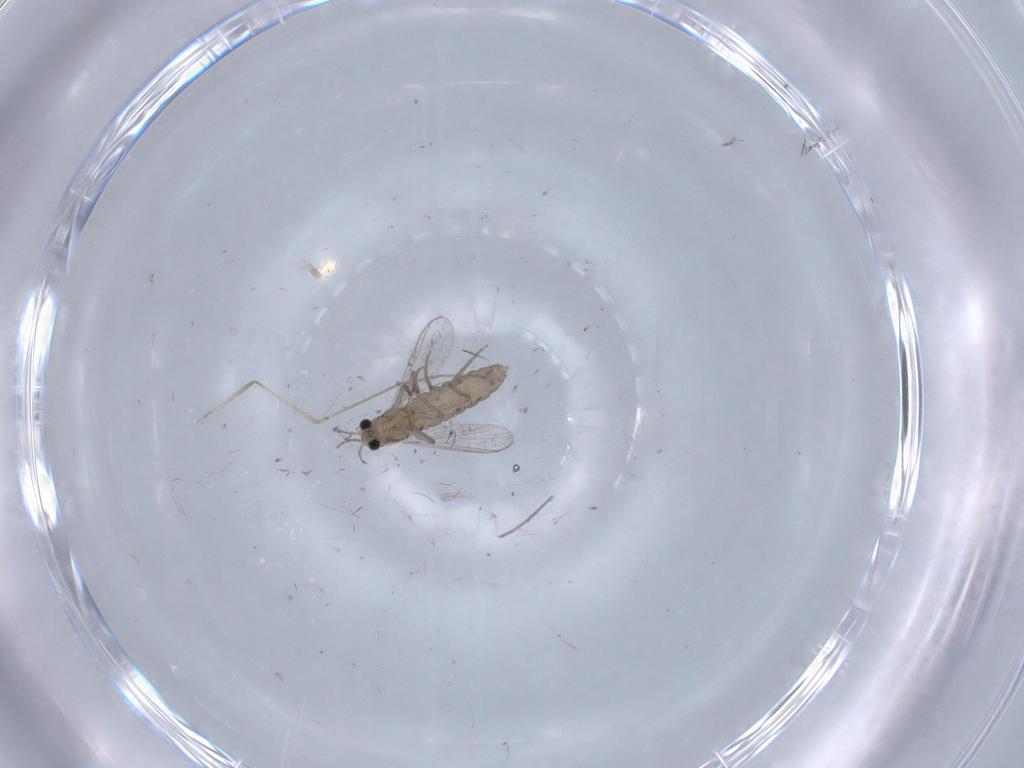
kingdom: Animalia
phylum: Arthropoda
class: Insecta
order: Diptera
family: Chironomidae
